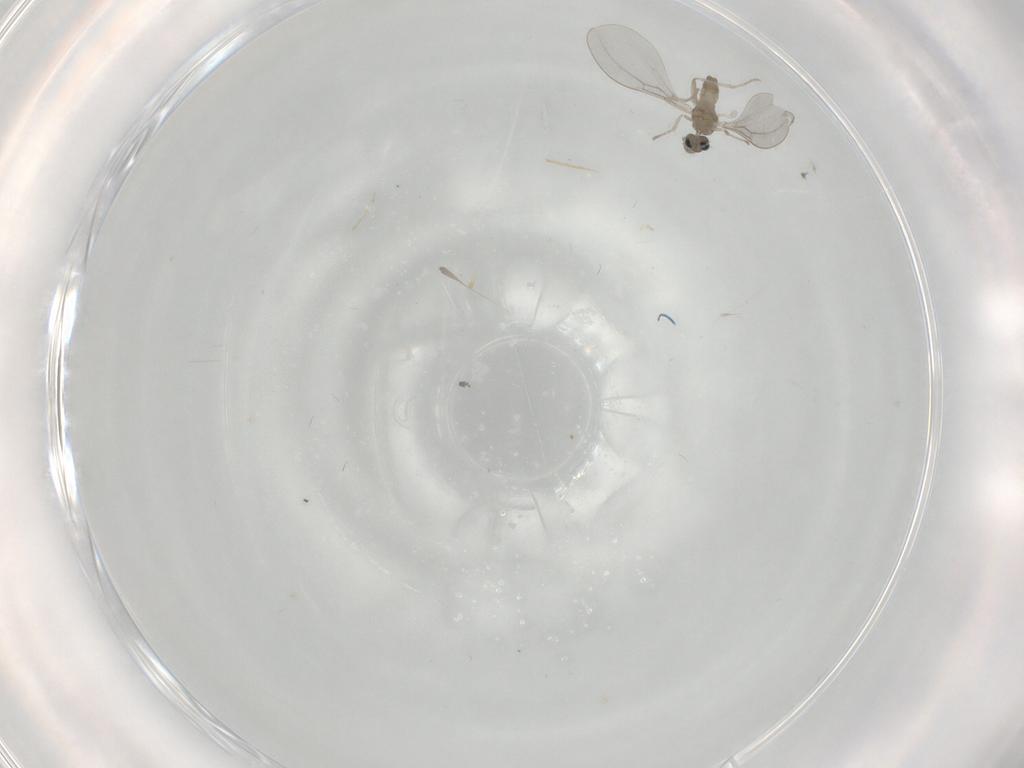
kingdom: Animalia
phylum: Arthropoda
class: Insecta
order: Diptera
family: Cecidomyiidae
